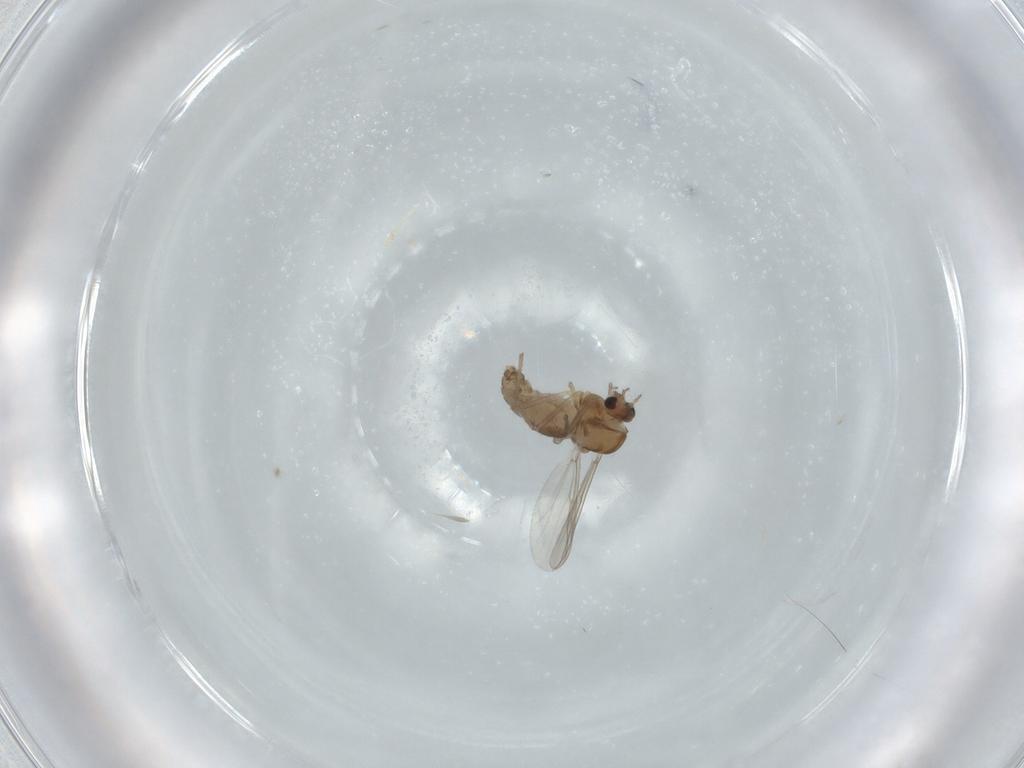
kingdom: Animalia
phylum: Arthropoda
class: Insecta
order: Diptera
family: Chironomidae
